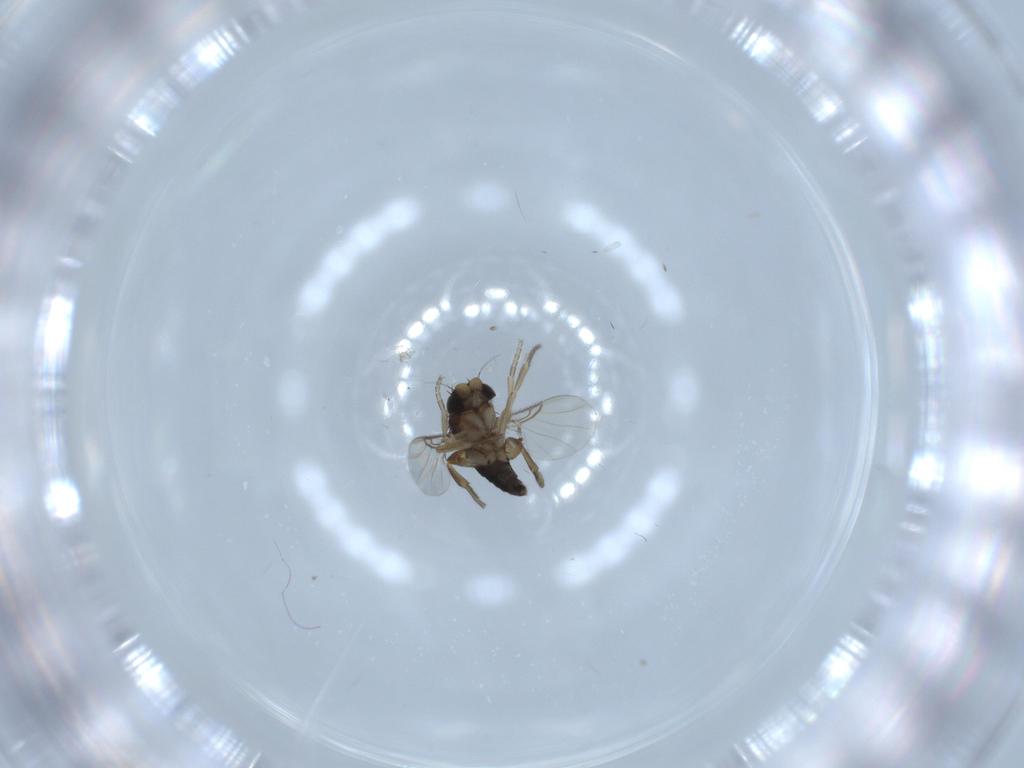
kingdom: Animalia
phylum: Arthropoda
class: Insecta
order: Diptera
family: Phoridae
